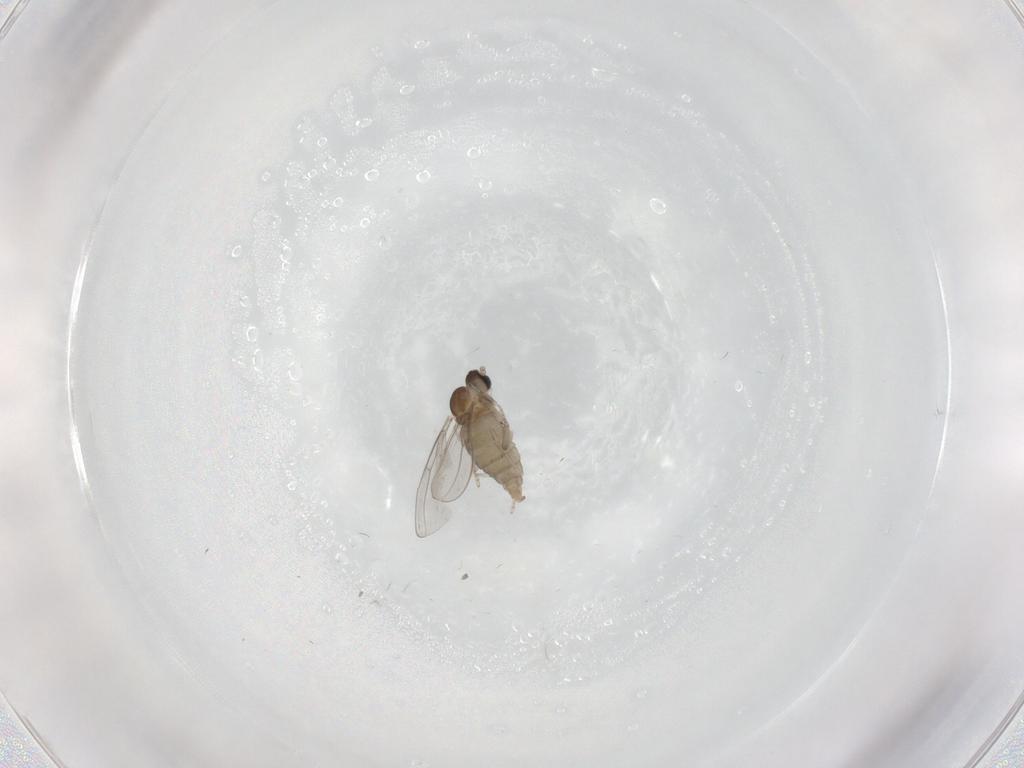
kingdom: Animalia
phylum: Arthropoda
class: Insecta
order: Diptera
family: Cecidomyiidae
